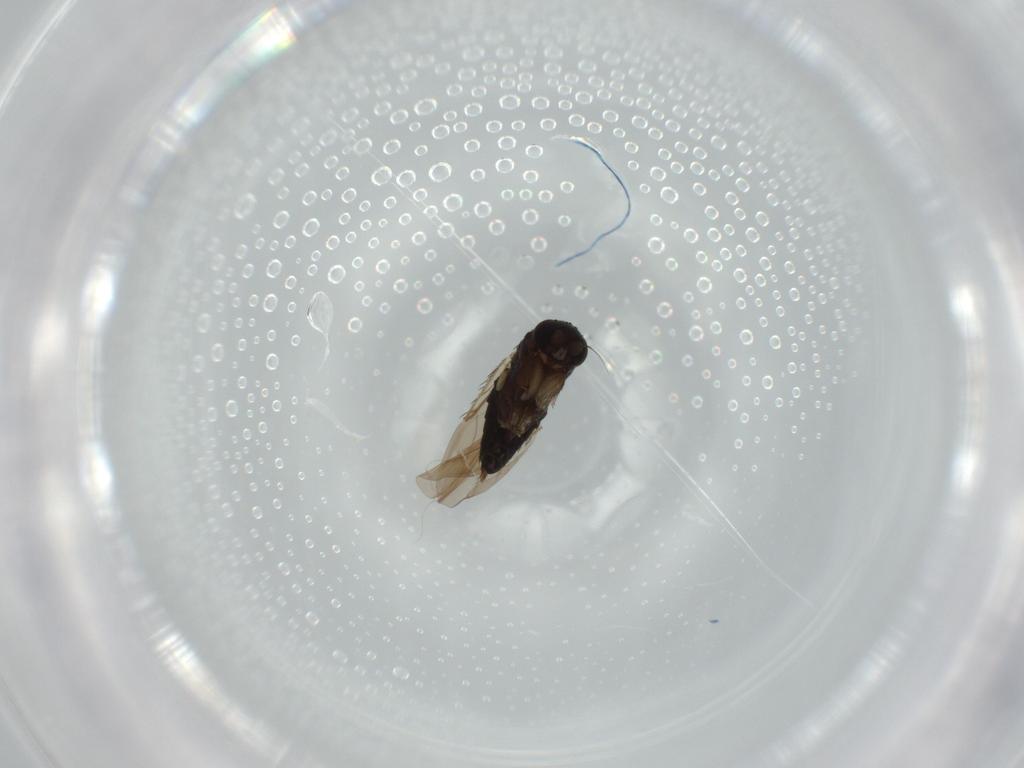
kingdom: Animalia
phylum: Arthropoda
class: Insecta
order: Diptera
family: Phoridae
